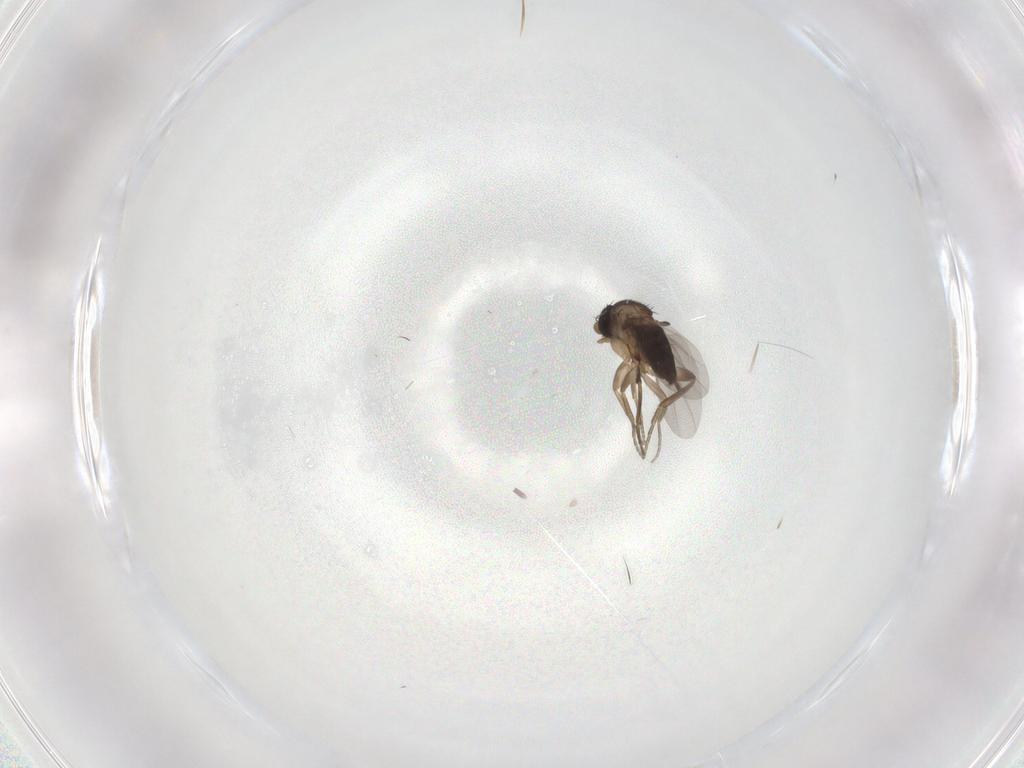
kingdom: Animalia
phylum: Arthropoda
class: Insecta
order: Diptera
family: Phoridae
